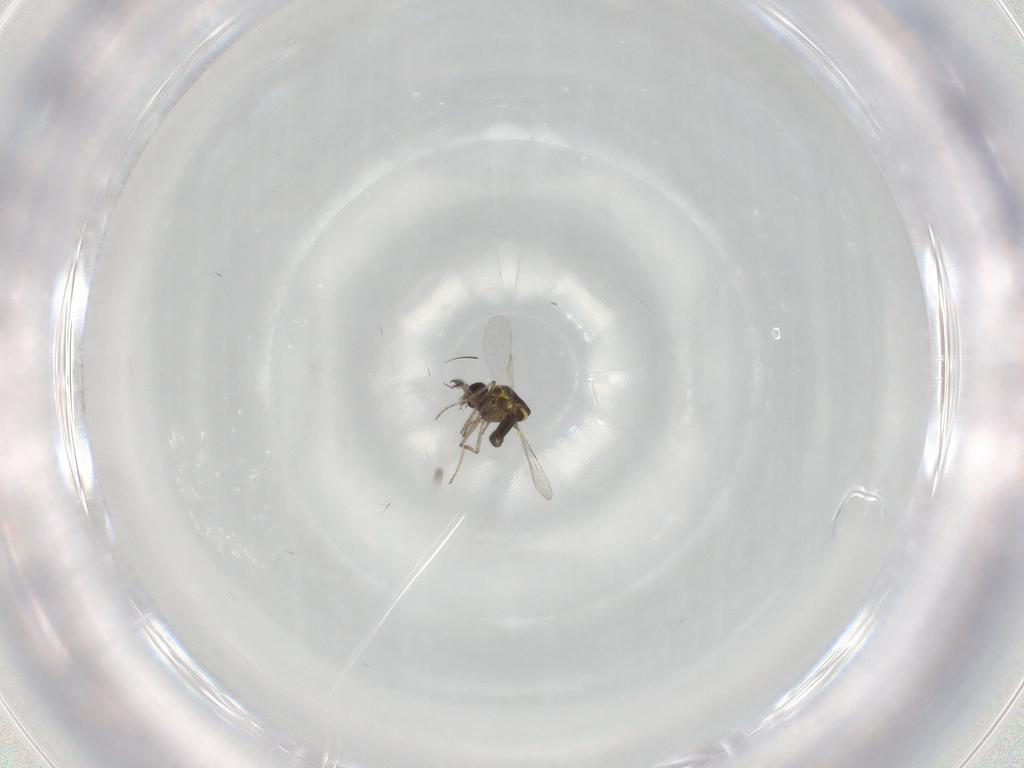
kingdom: Animalia
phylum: Arthropoda
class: Insecta
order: Diptera
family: Ceratopogonidae
